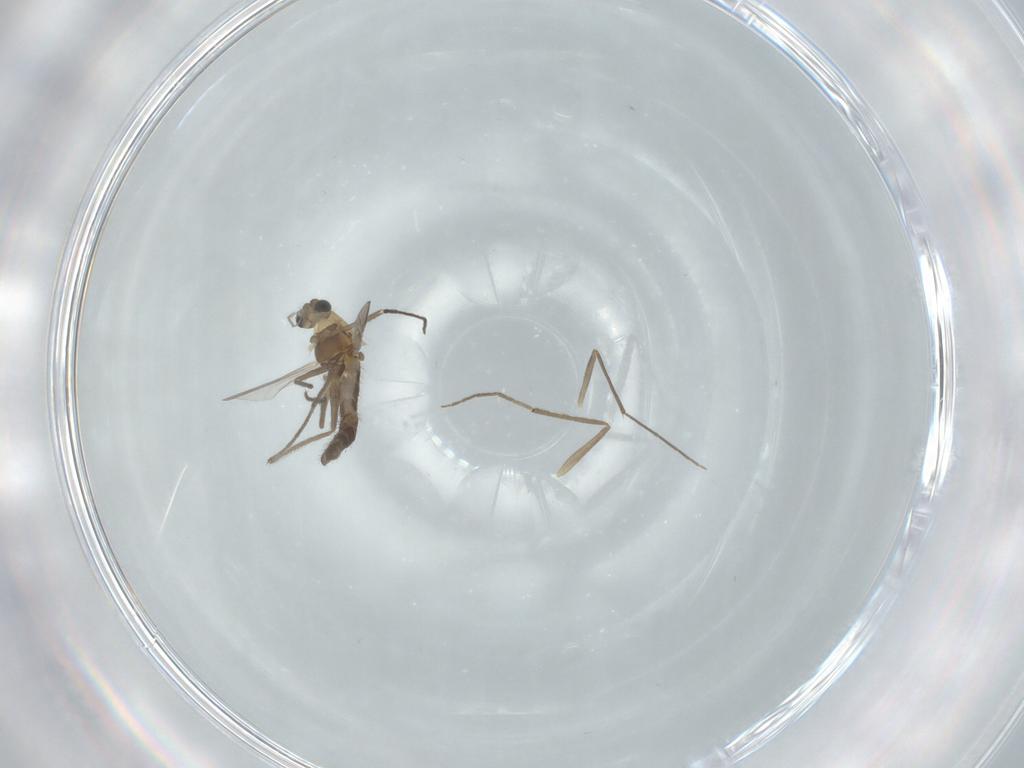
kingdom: Animalia
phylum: Arthropoda
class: Insecta
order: Diptera
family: Chironomidae
